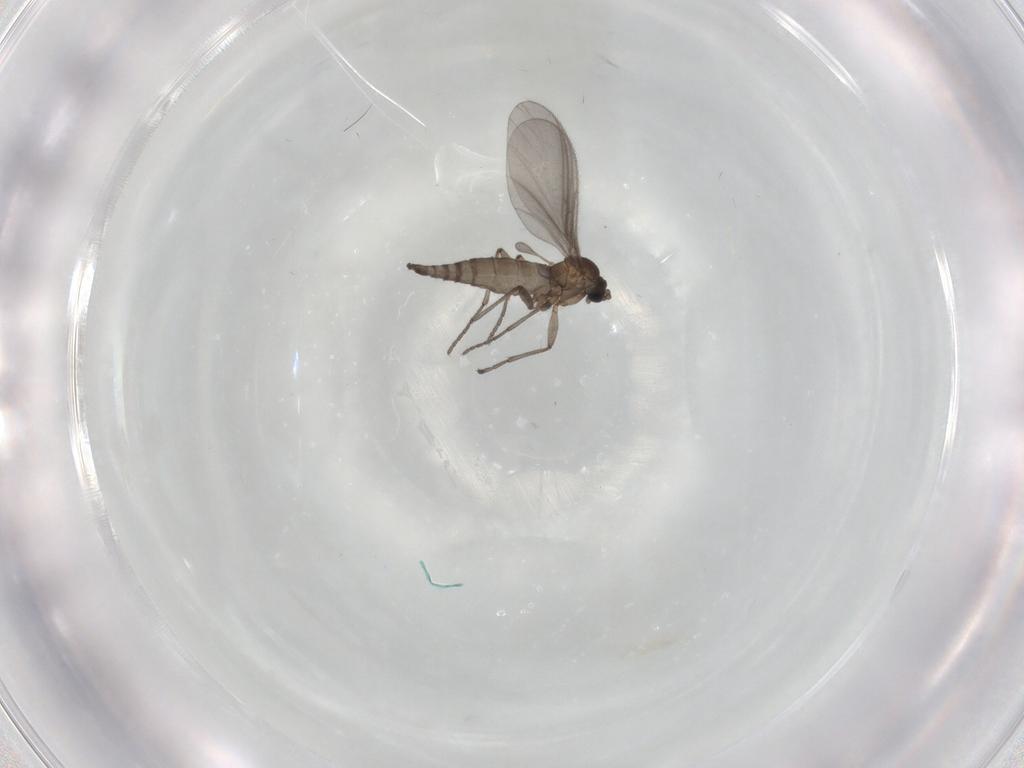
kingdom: Animalia
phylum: Arthropoda
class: Insecta
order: Diptera
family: Sciaridae
